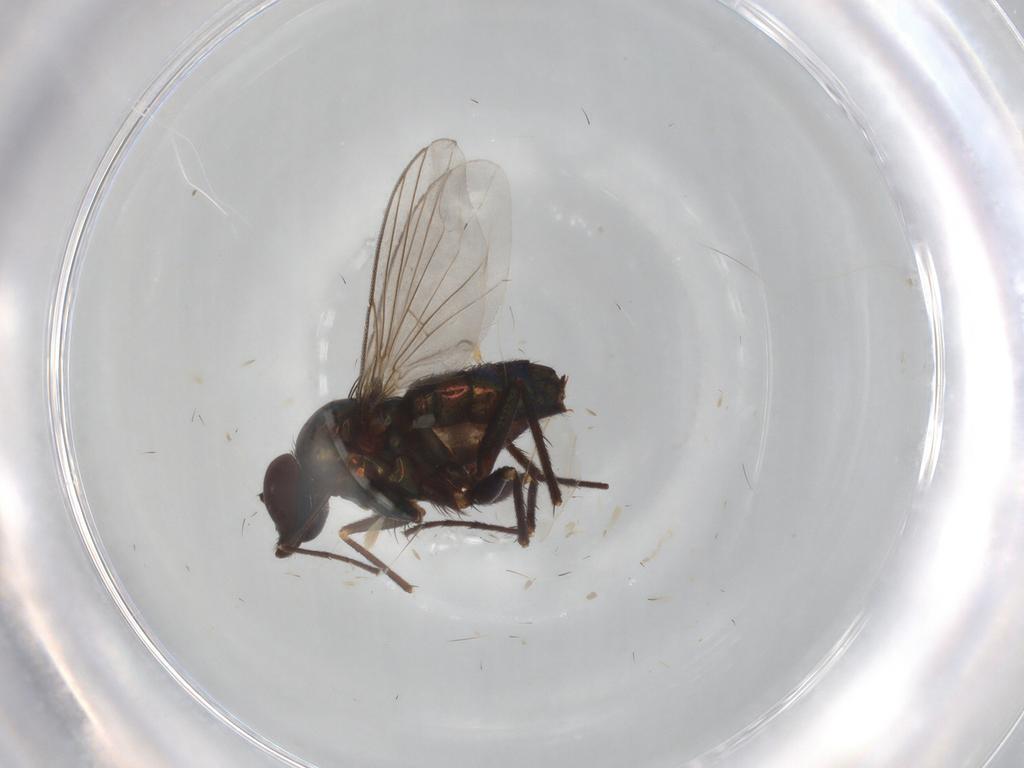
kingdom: Animalia
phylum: Arthropoda
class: Insecta
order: Diptera
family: Dolichopodidae
